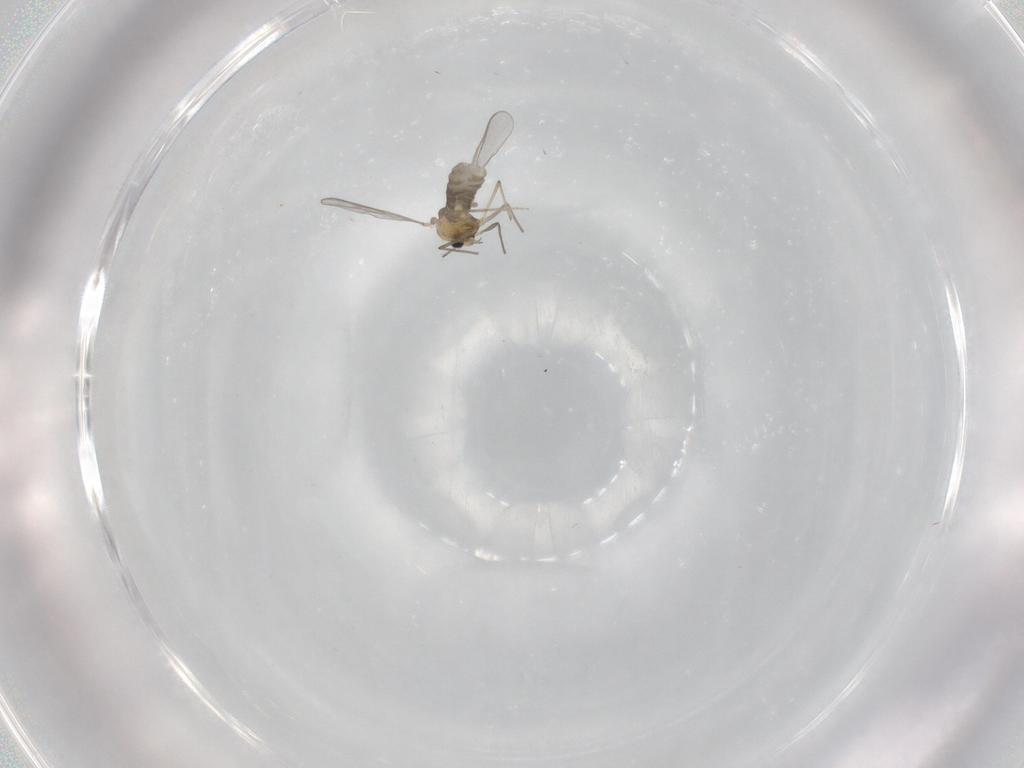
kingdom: Animalia
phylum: Arthropoda
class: Insecta
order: Diptera
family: Chironomidae
